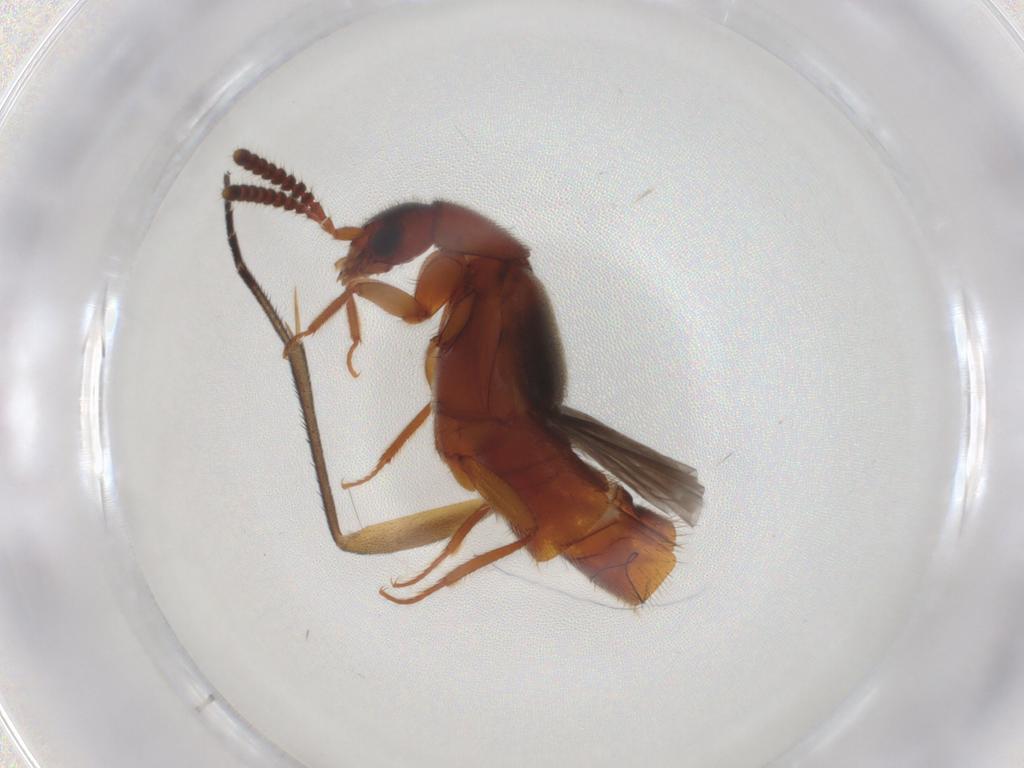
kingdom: Animalia
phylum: Arthropoda
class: Insecta
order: Coleoptera
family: Staphylinidae
